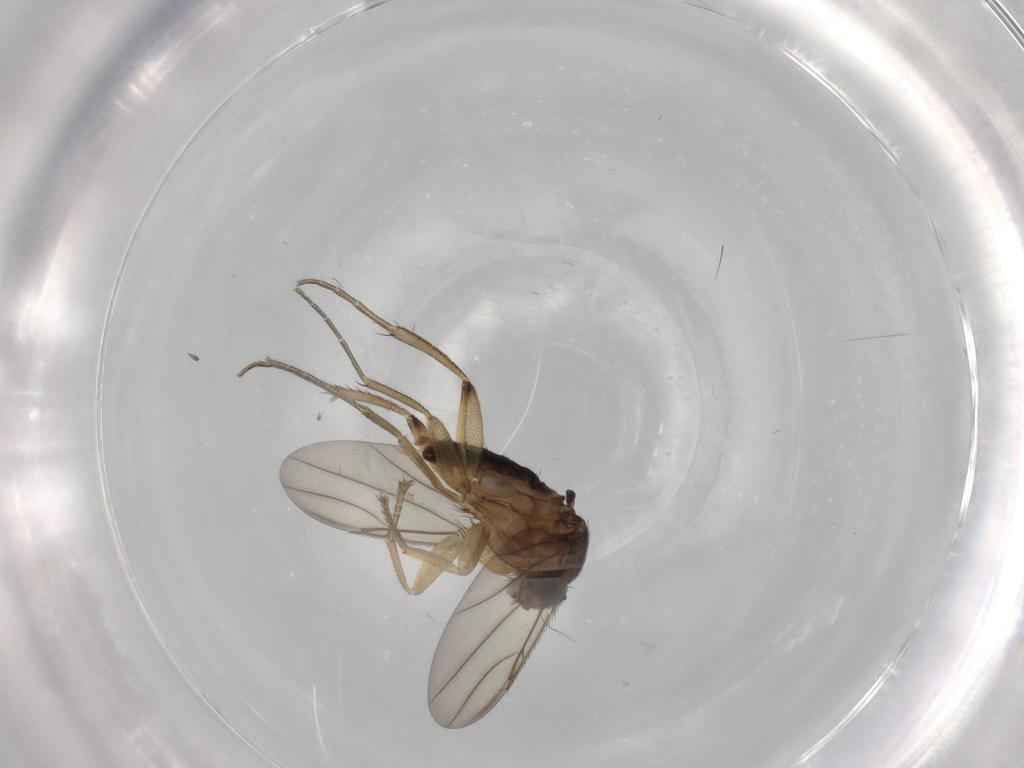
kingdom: Animalia
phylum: Arthropoda
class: Insecta
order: Diptera
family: Phoridae
